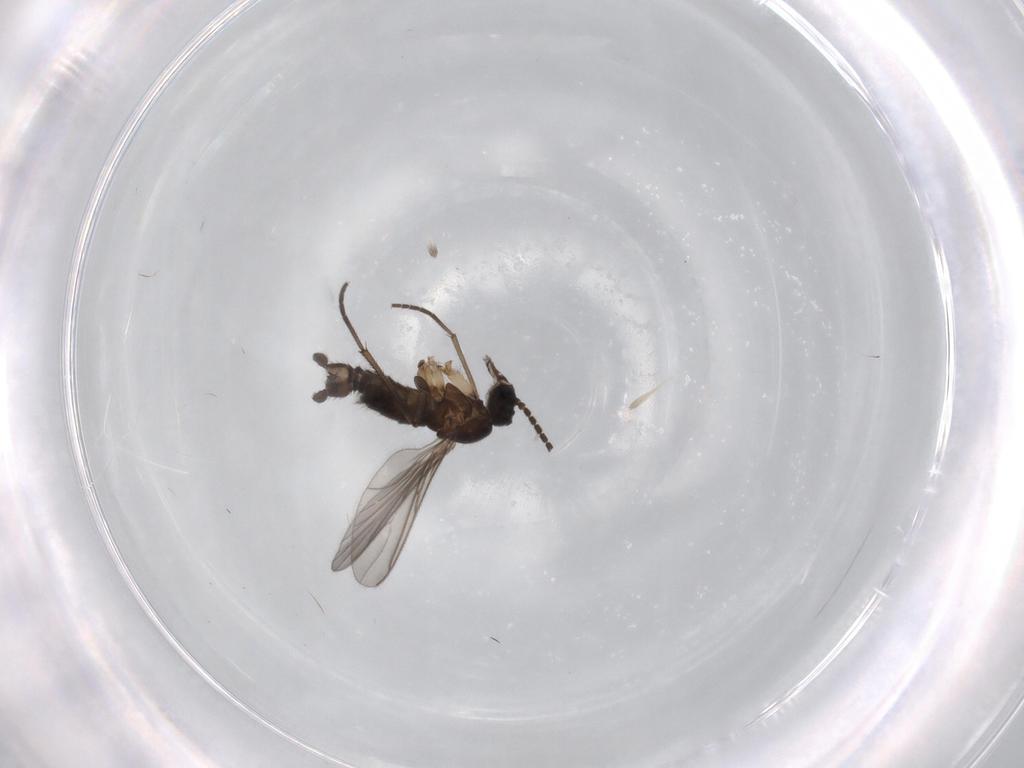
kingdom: Animalia
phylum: Arthropoda
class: Insecta
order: Diptera
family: Sciaridae
